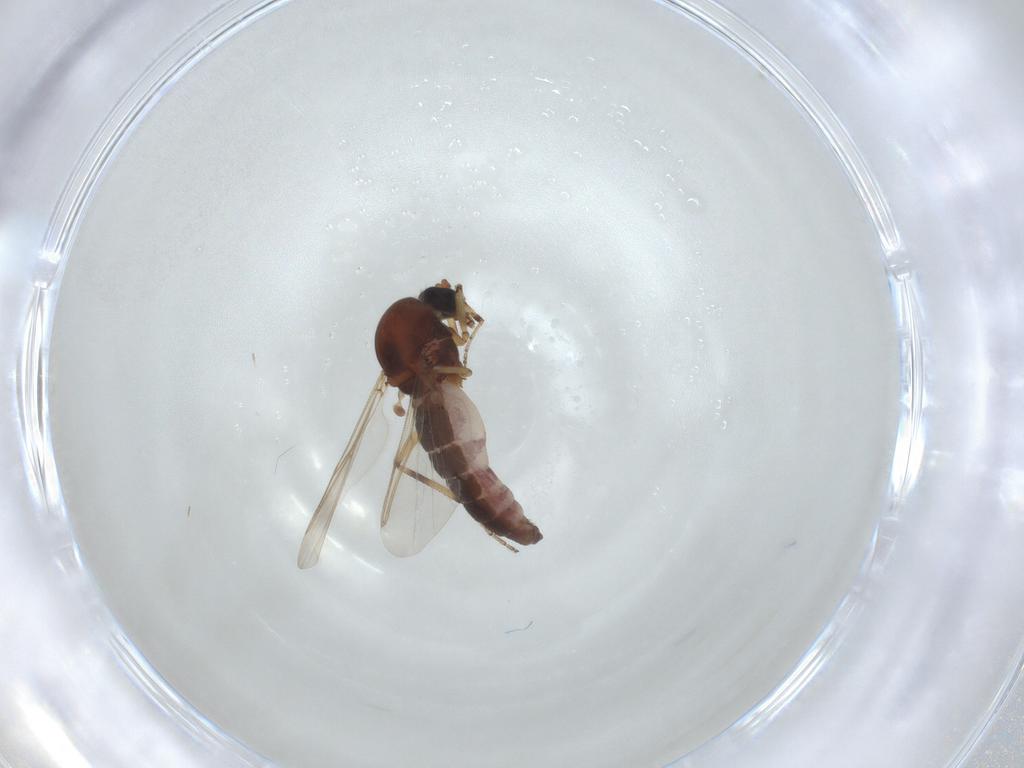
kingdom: Animalia
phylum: Arthropoda
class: Insecta
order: Diptera
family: Ceratopogonidae
